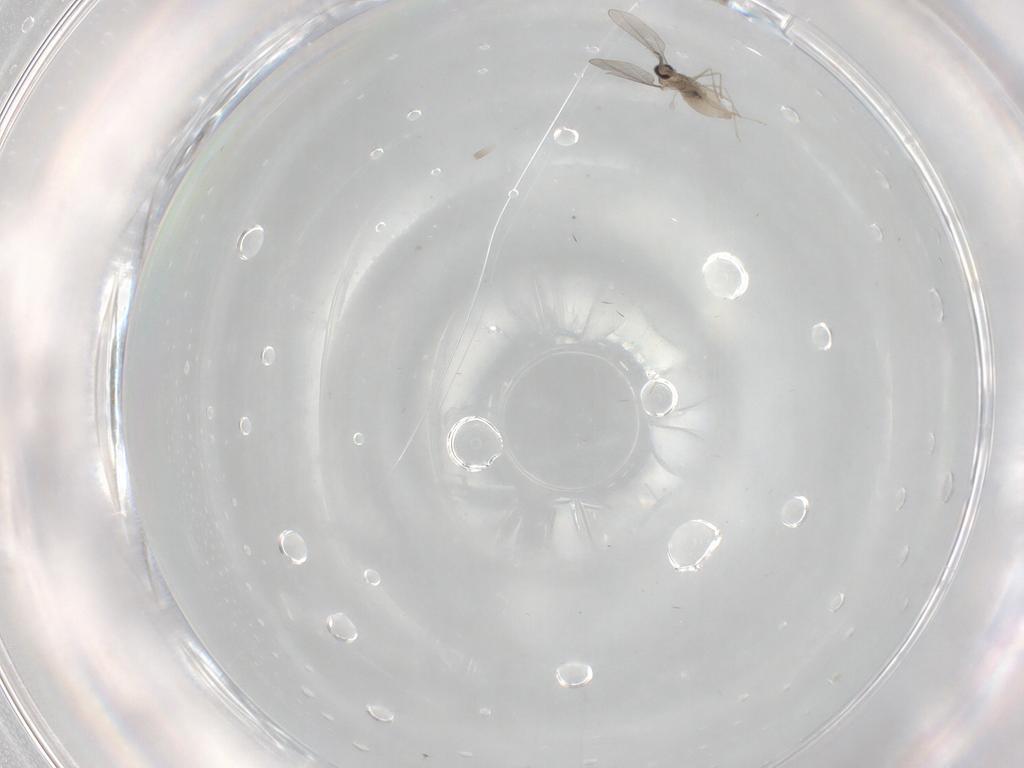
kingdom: Animalia
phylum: Arthropoda
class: Insecta
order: Diptera
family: Cecidomyiidae
